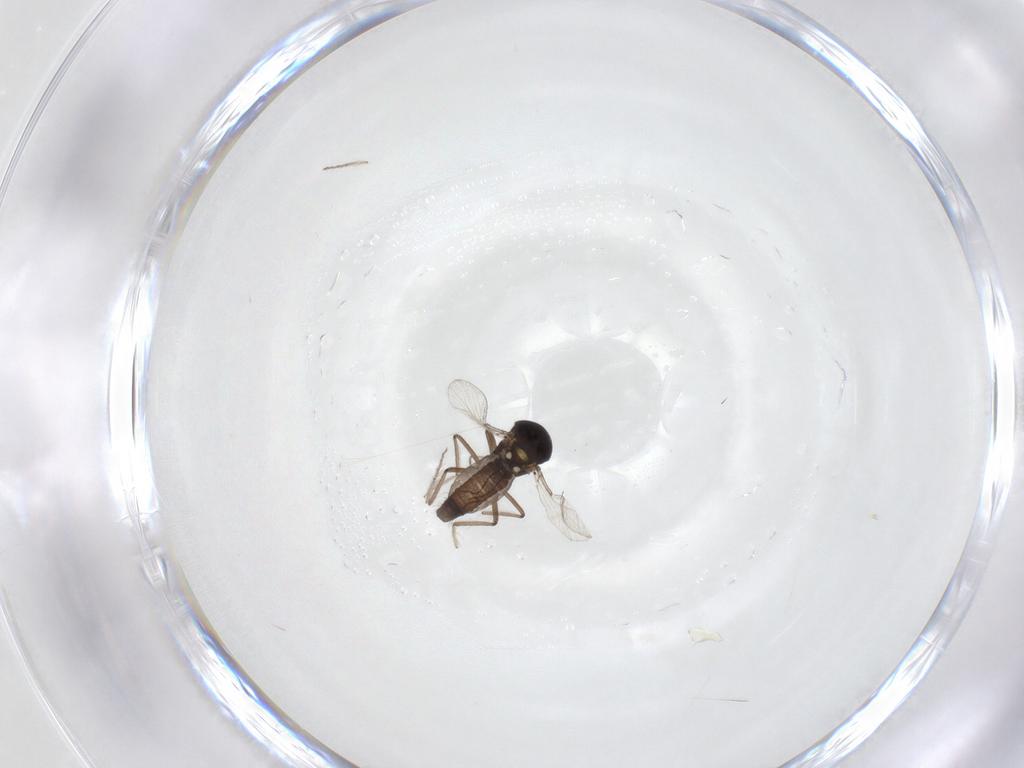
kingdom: Animalia
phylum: Arthropoda
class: Insecta
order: Diptera
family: Ceratopogonidae
